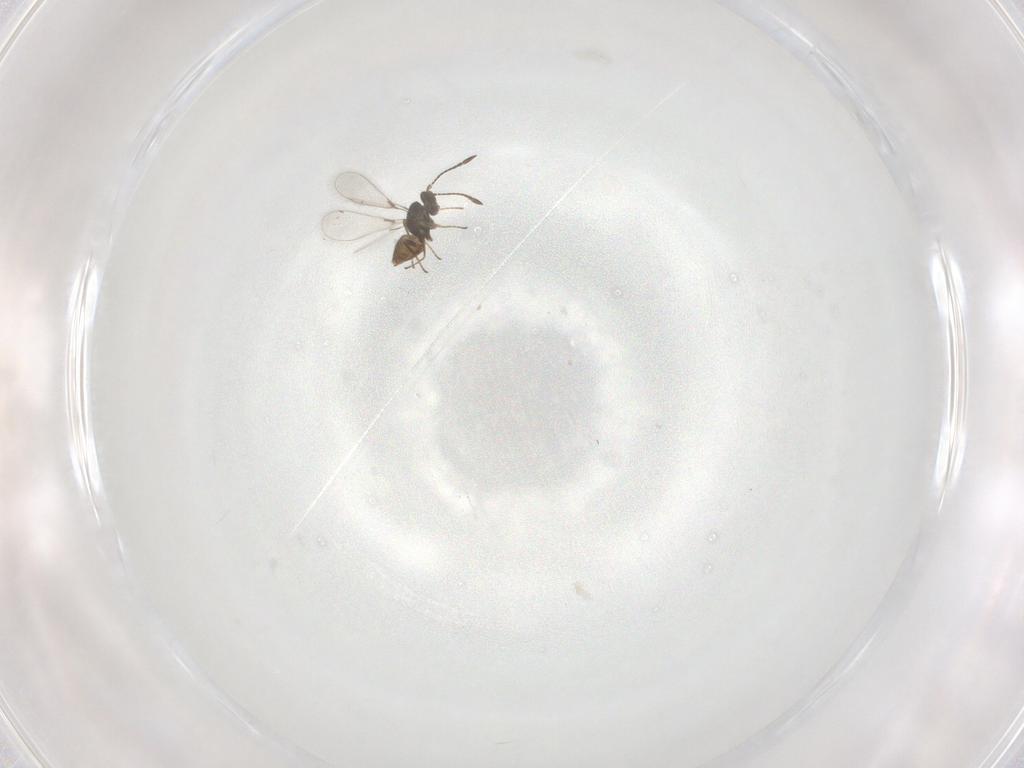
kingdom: Animalia
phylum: Arthropoda
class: Insecta
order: Hymenoptera
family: Mymaridae
